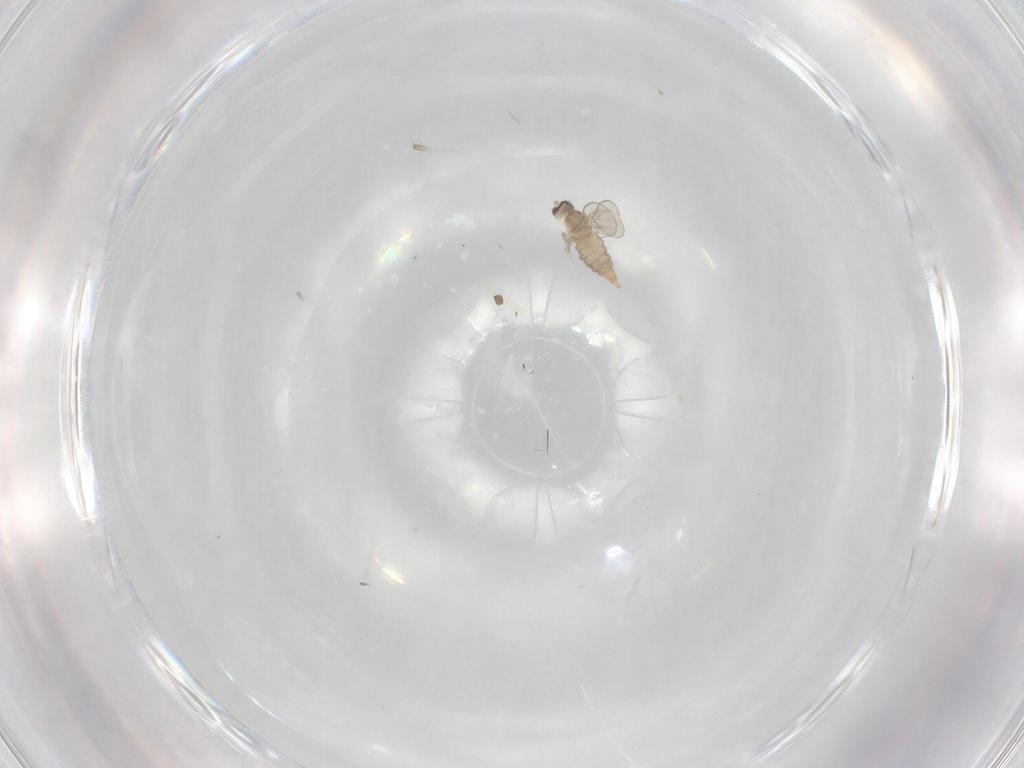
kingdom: Animalia
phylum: Arthropoda
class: Insecta
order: Diptera
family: Cecidomyiidae
